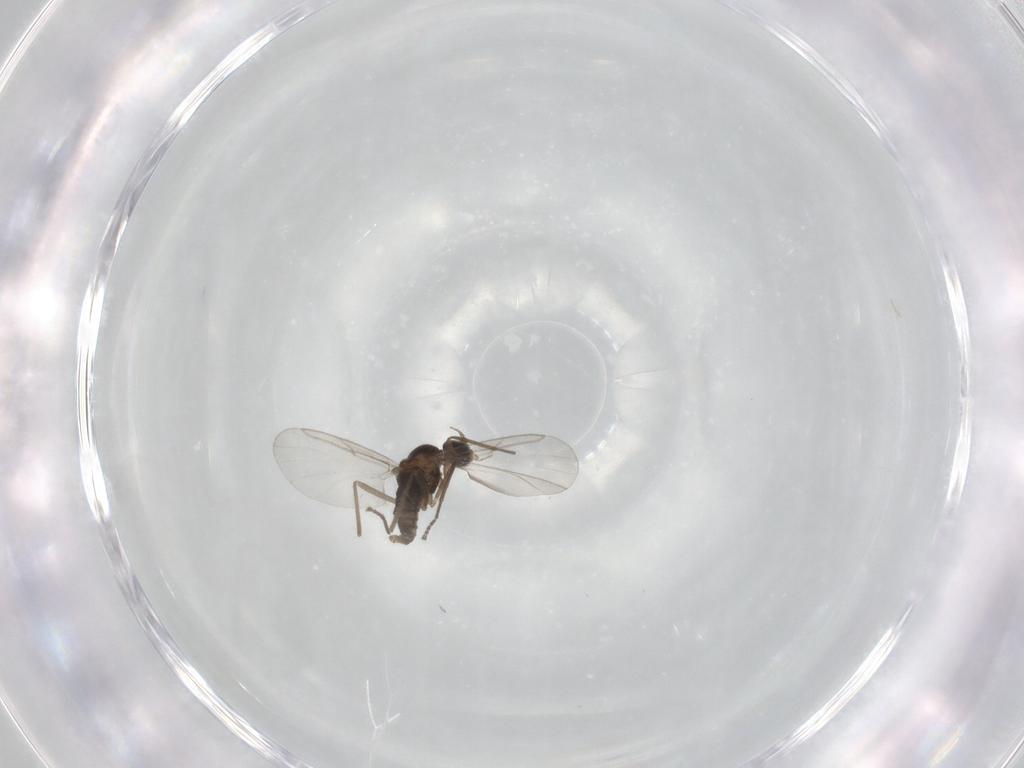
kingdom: Animalia
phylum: Arthropoda
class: Insecta
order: Diptera
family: Cecidomyiidae
